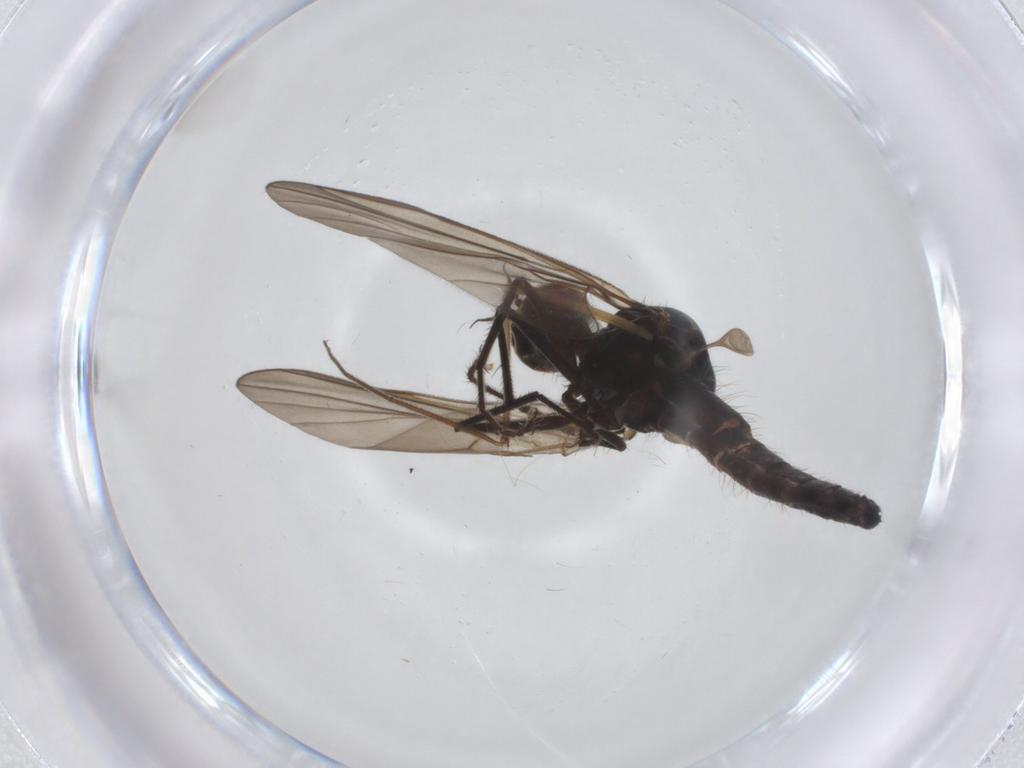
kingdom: Animalia
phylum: Arthropoda
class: Insecta
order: Diptera
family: Hybotidae
